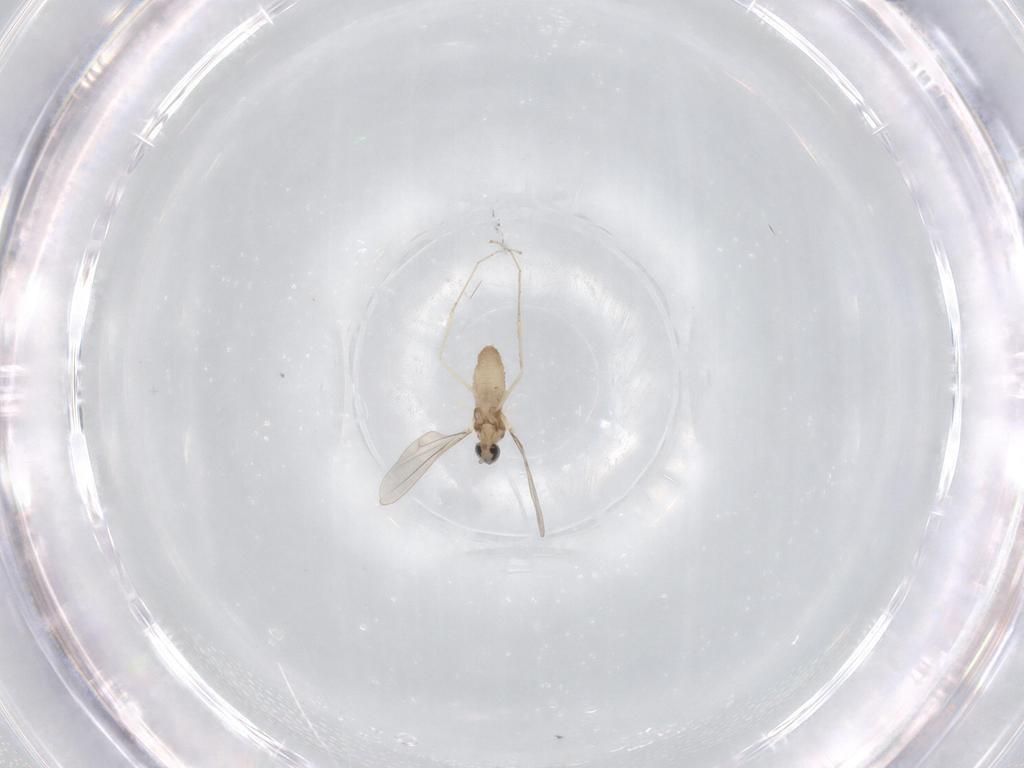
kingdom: Animalia
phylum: Arthropoda
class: Insecta
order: Diptera
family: Cecidomyiidae
